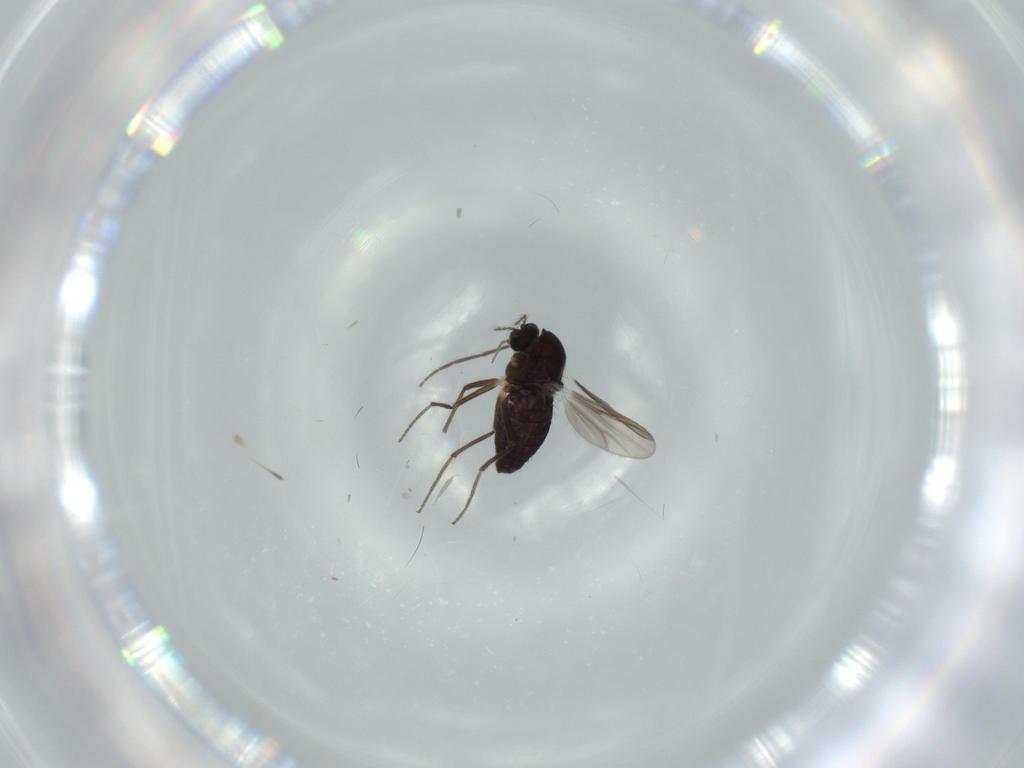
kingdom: Animalia
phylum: Arthropoda
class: Insecta
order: Diptera
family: Chironomidae
